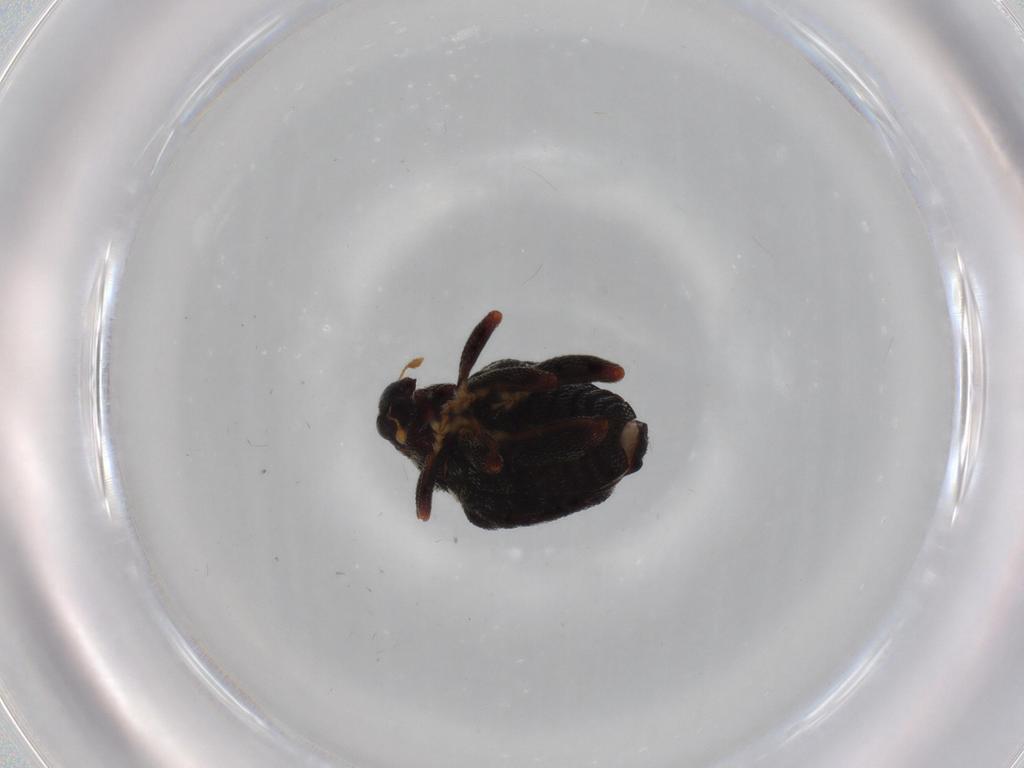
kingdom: Animalia
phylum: Arthropoda
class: Insecta
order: Coleoptera
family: Curculionidae
